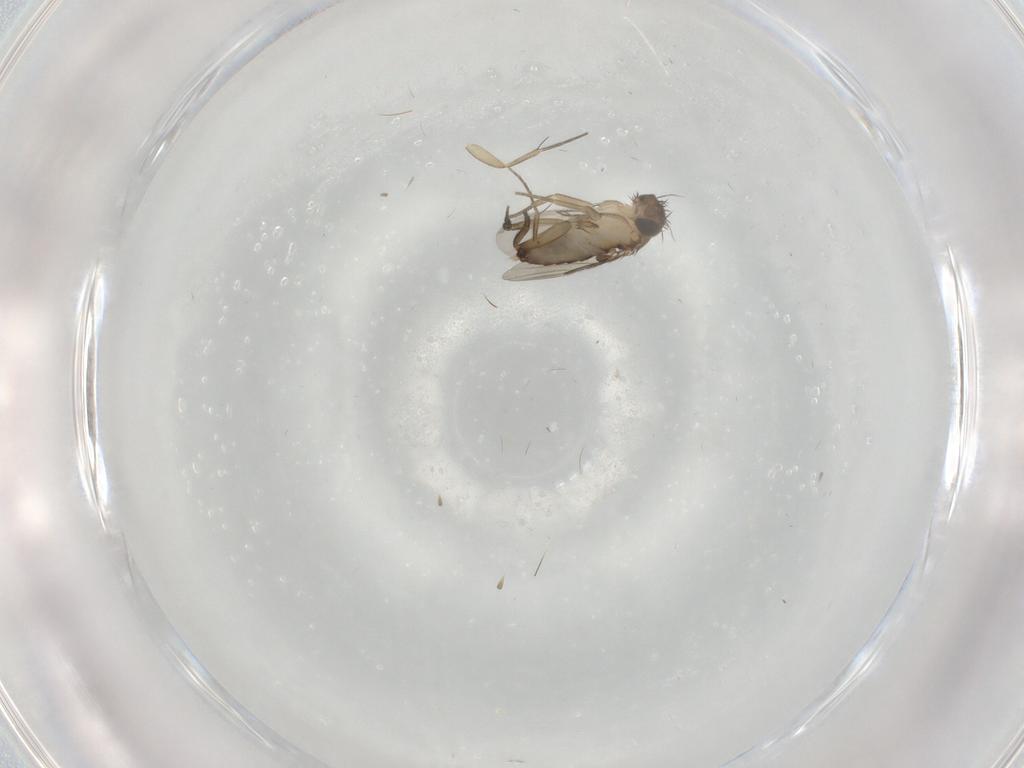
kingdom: Animalia
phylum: Arthropoda
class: Insecta
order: Diptera
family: Phoridae
